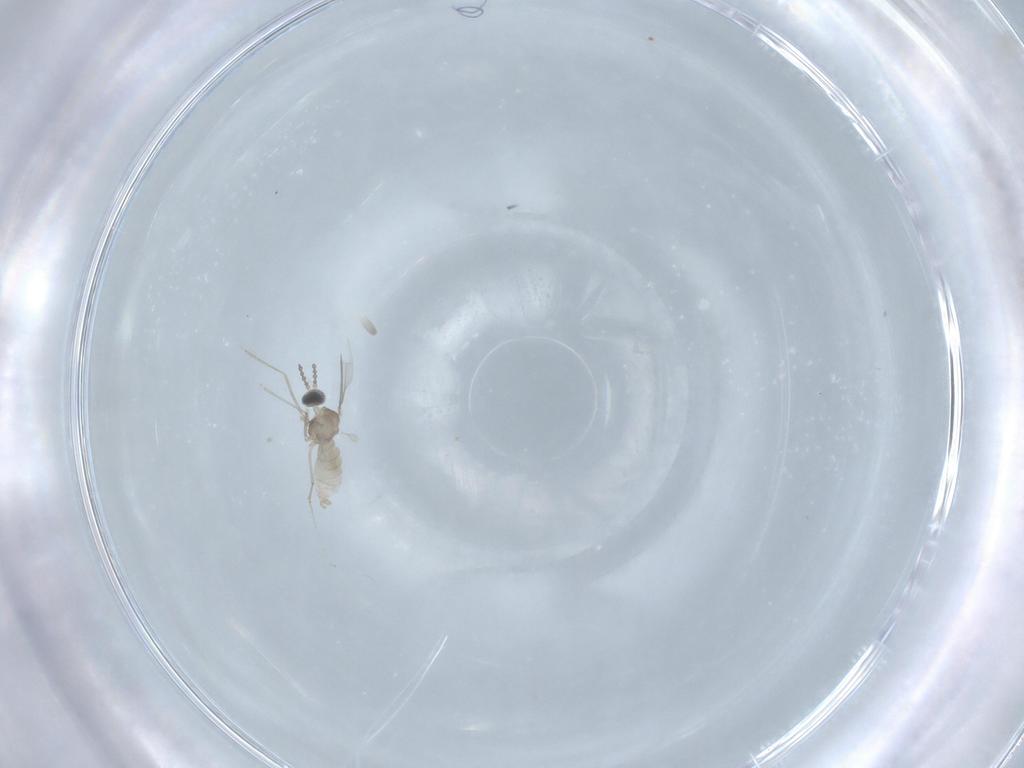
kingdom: Animalia
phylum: Arthropoda
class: Insecta
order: Diptera
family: Cecidomyiidae
